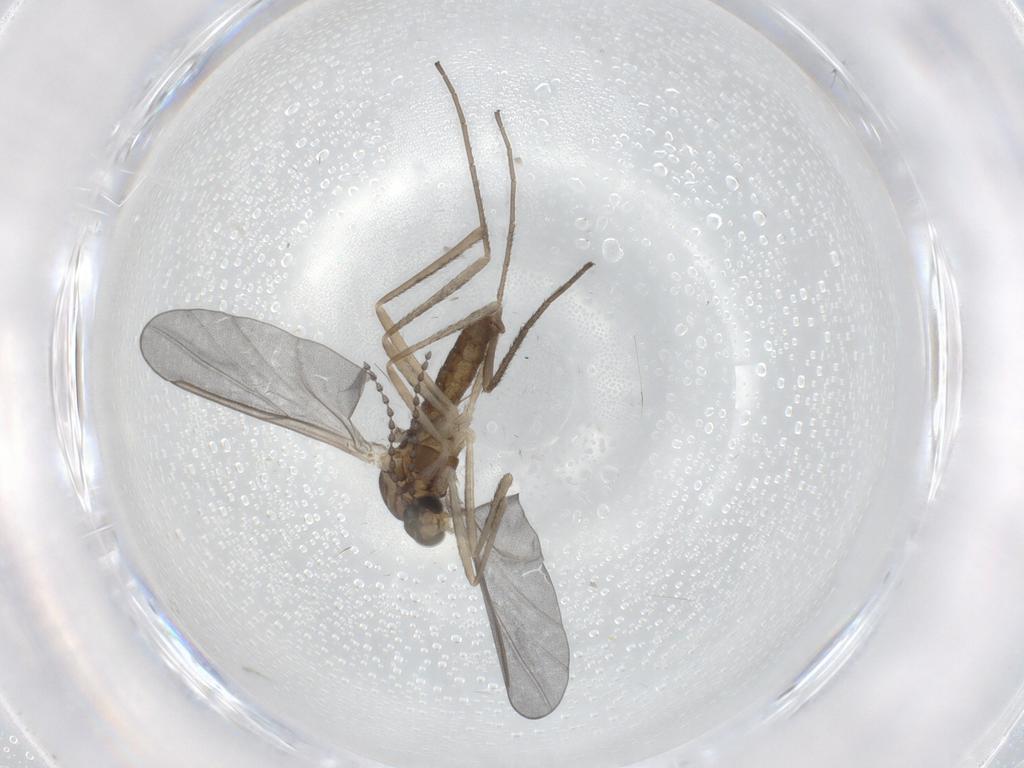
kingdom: Animalia
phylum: Arthropoda
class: Insecta
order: Diptera
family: Cecidomyiidae
